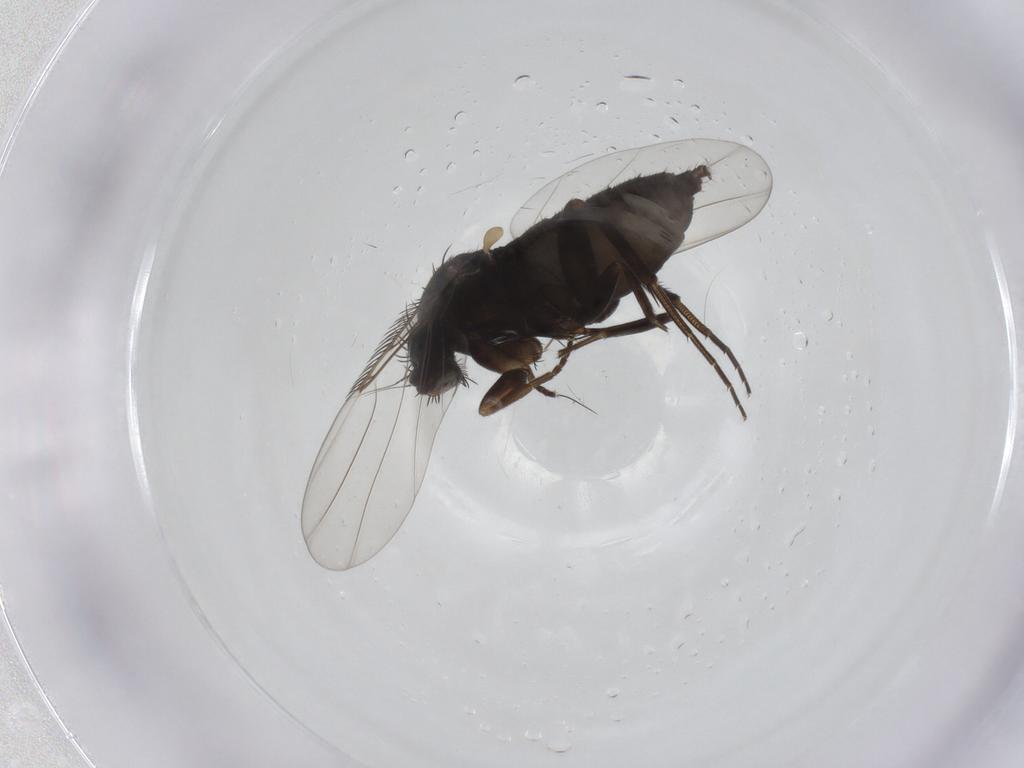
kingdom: Animalia
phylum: Arthropoda
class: Insecta
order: Diptera
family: Phoridae
